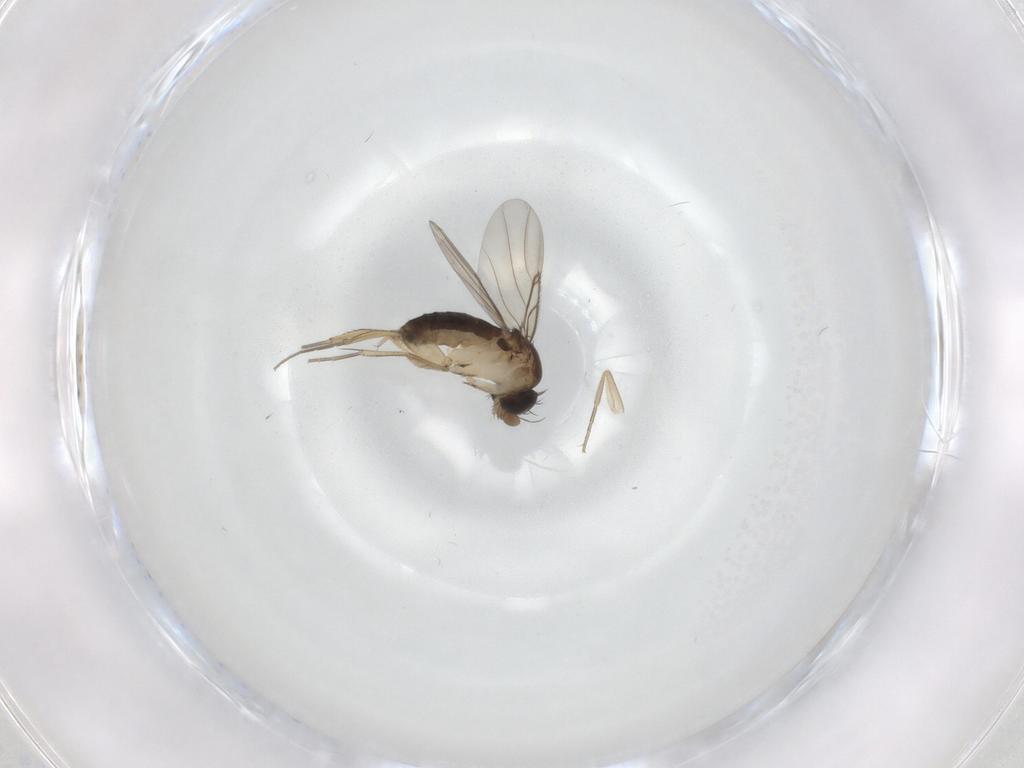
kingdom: Animalia
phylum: Arthropoda
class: Insecta
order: Diptera
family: Phoridae
